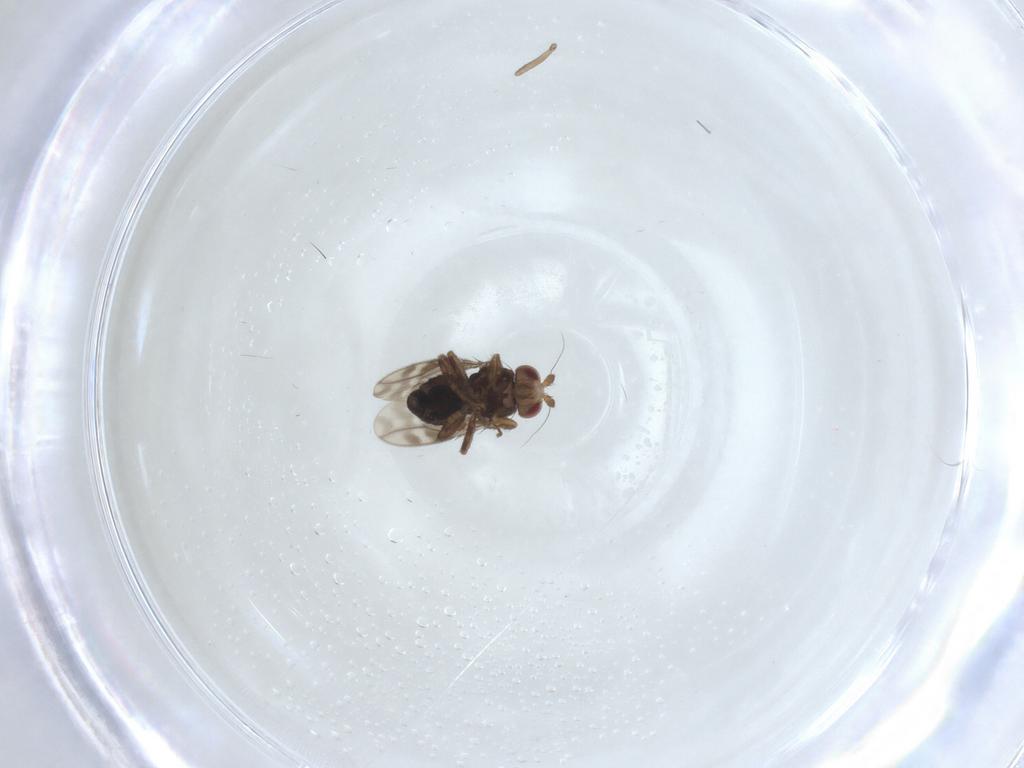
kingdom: Animalia
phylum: Arthropoda
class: Insecta
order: Diptera
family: Sphaeroceridae
